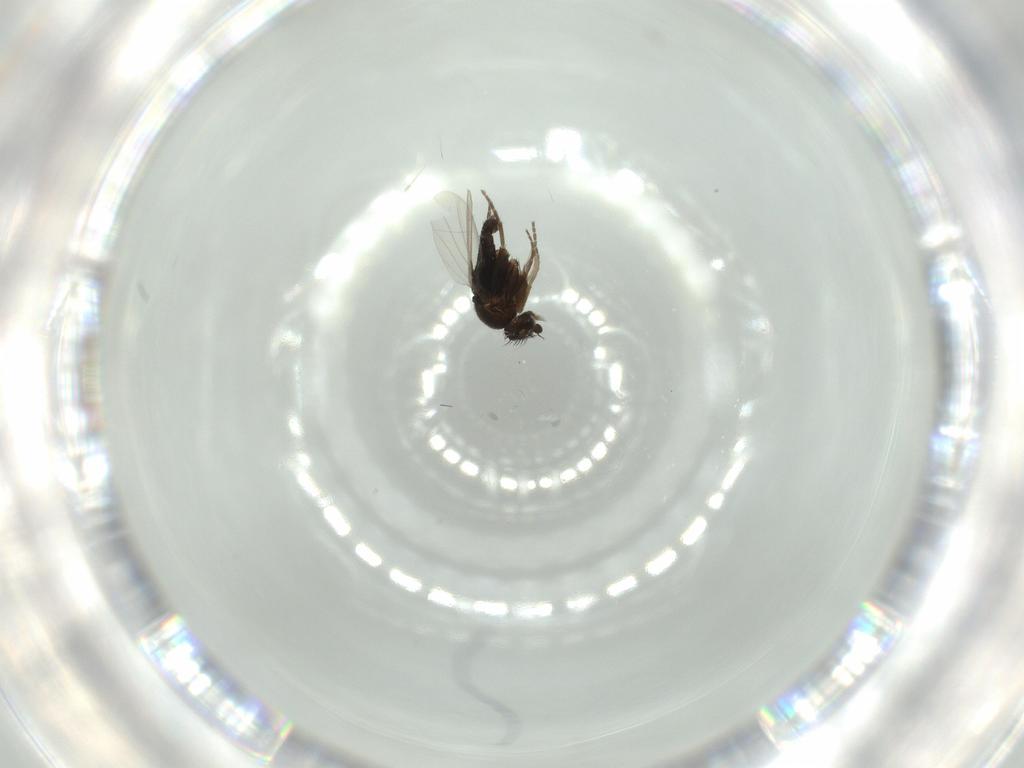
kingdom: Animalia
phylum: Arthropoda
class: Insecta
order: Diptera
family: Phoridae
